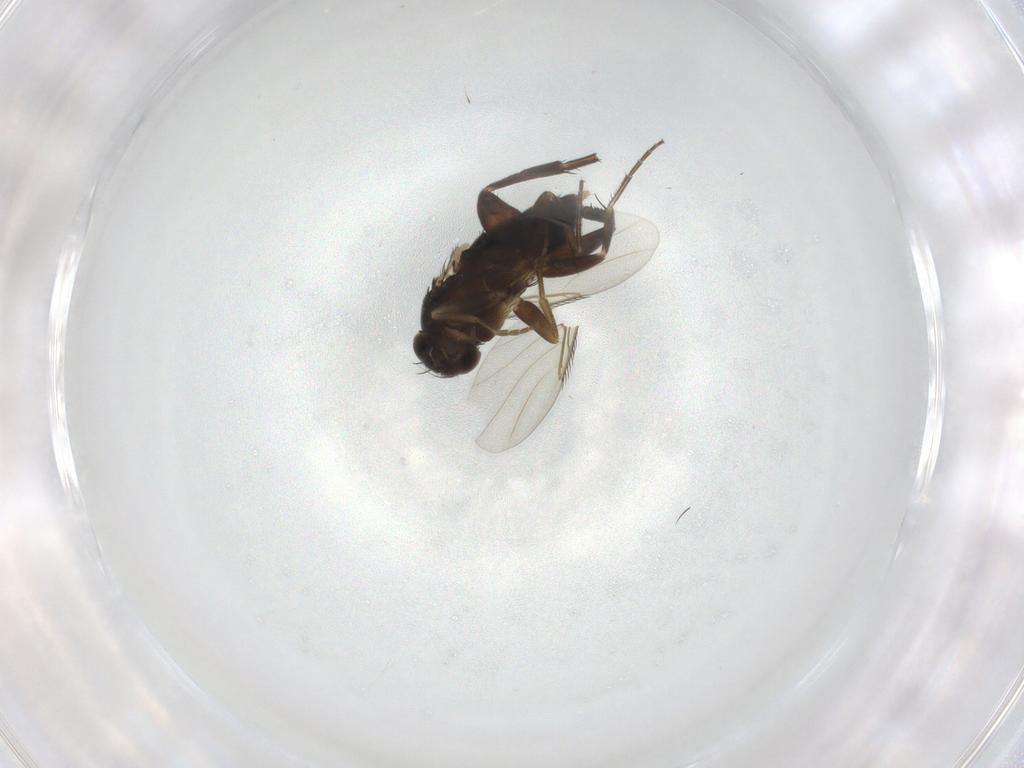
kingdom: Animalia
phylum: Arthropoda
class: Insecta
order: Diptera
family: Phoridae
